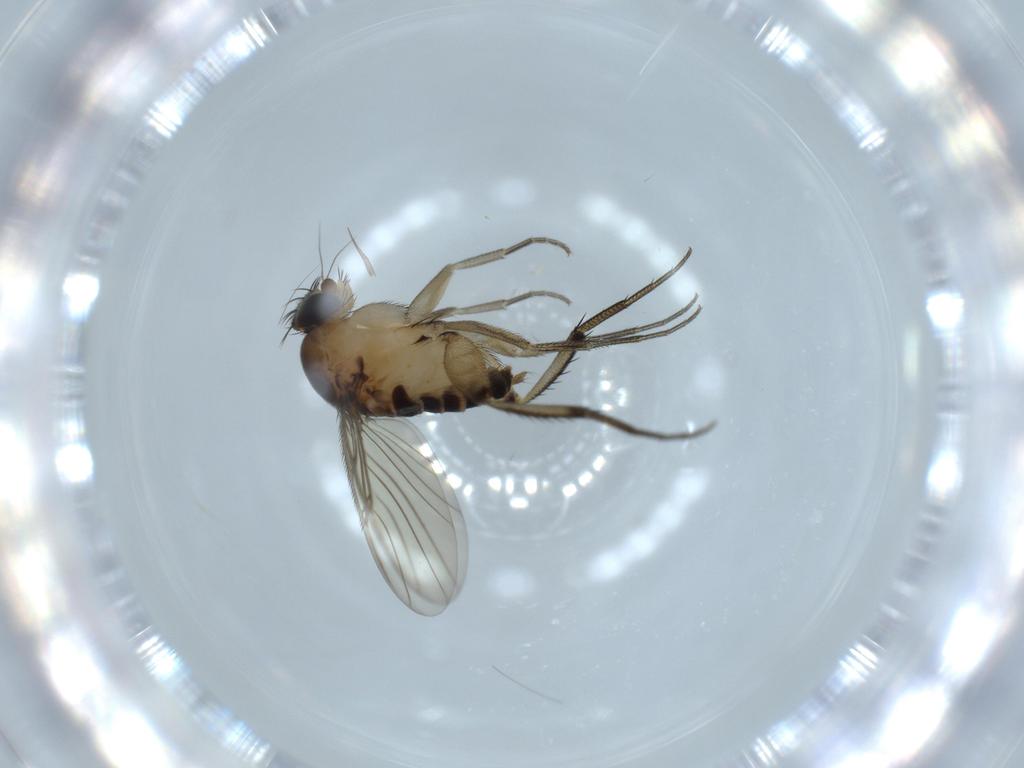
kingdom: Animalia
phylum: Arthropoda
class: Insecta
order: Diptera
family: Phoridae
